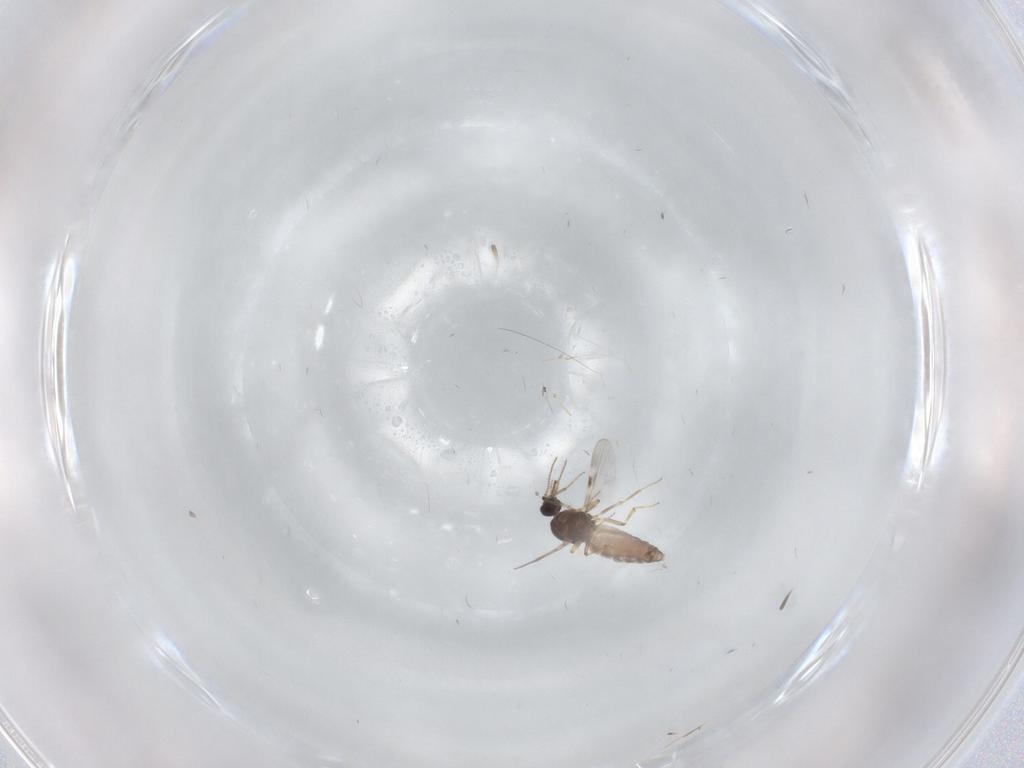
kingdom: Animalia
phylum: Arthropoda
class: Insecta
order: Diptera
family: Phoridae
